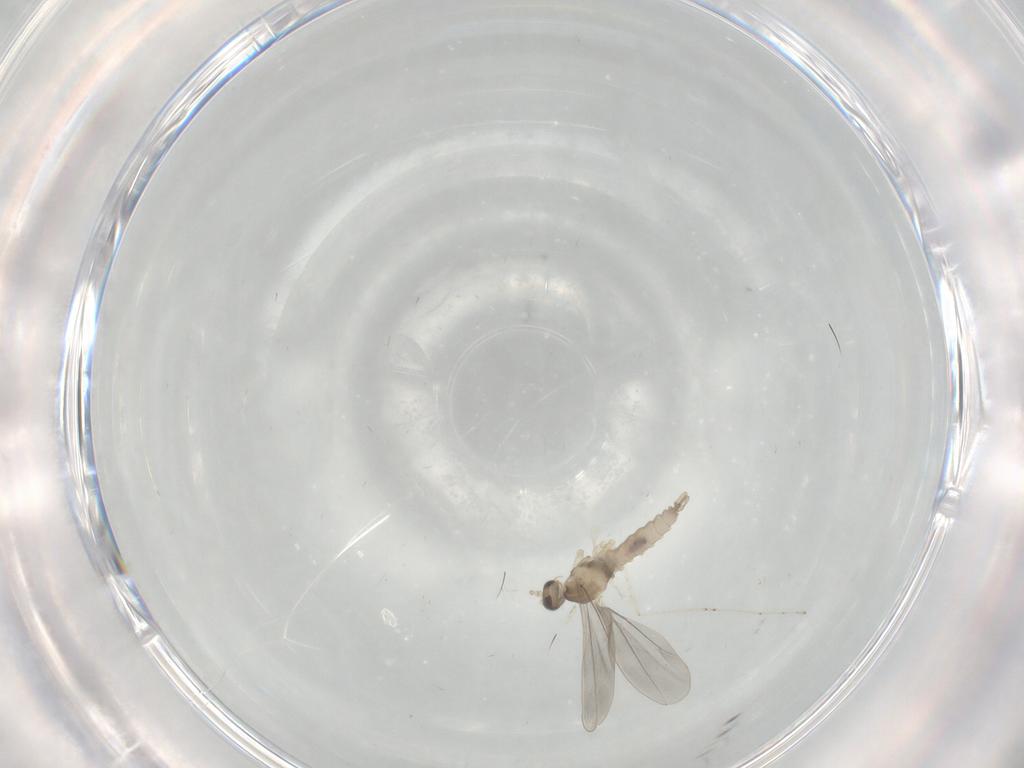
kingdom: Animalia
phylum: Arthropoda
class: Insecta
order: Diptera
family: Cecidomyiidae
